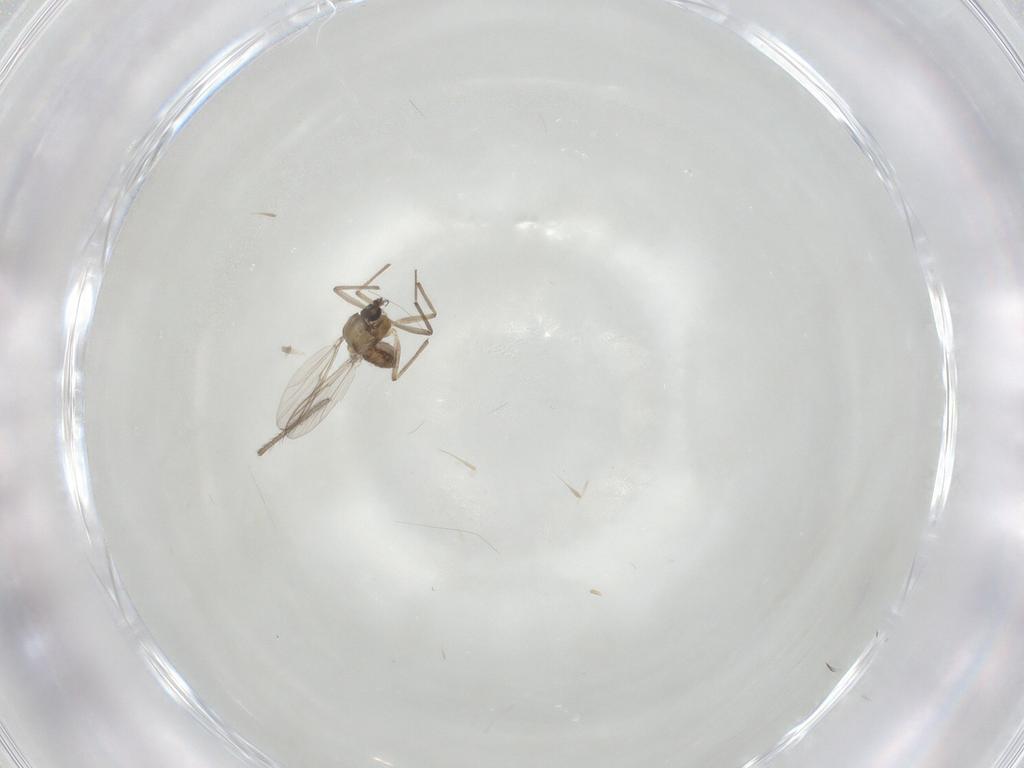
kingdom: Animalia
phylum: Arthropoda
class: Insecta
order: Diptera
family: Chironomidae
